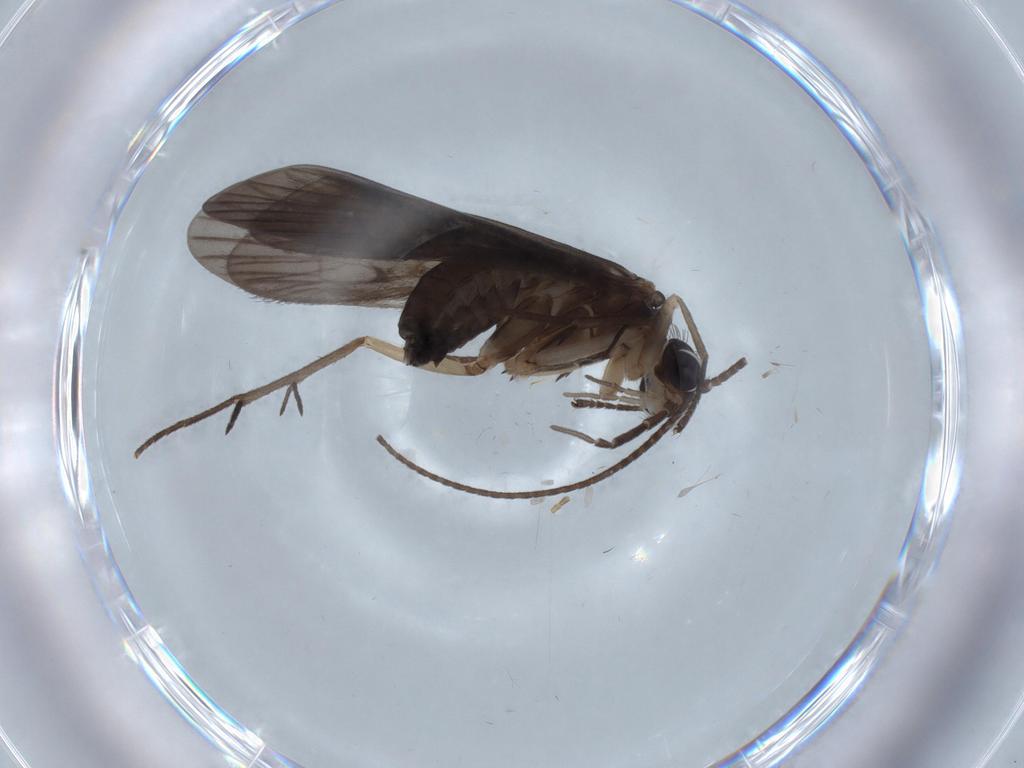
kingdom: Animalia
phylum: Arthropoda
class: Insecta
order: Trichoptera
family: Philopotamidae
